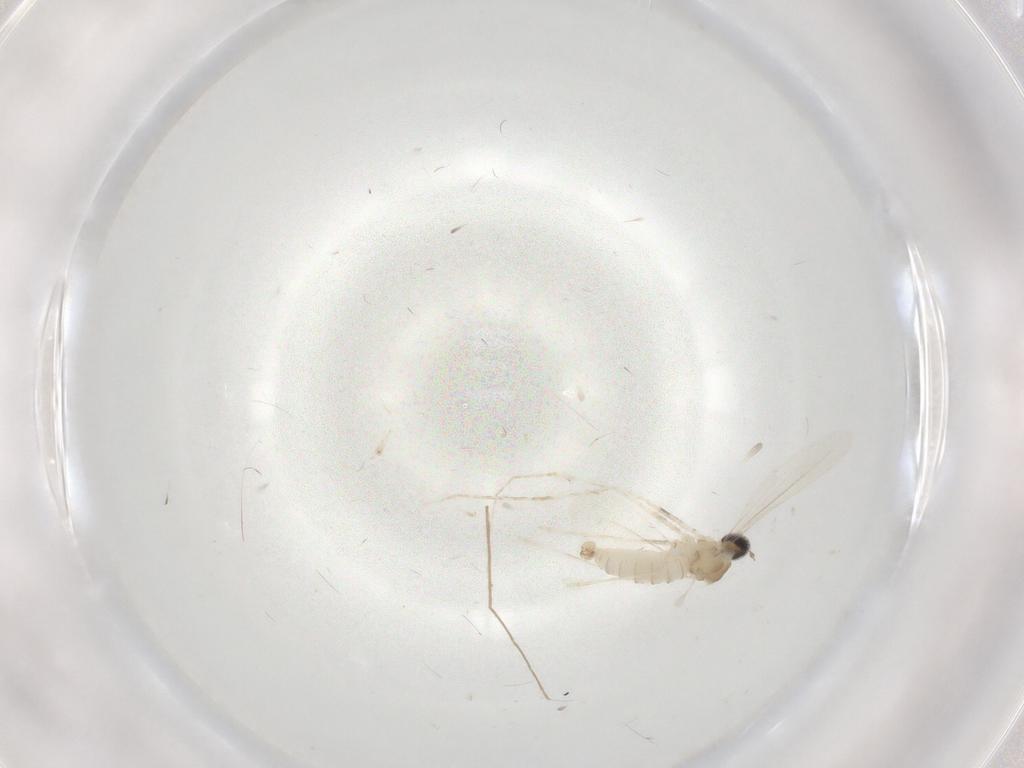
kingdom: Animalia
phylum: Arthropoda
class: Insecta
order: Diptera
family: Cecidomyiidae
